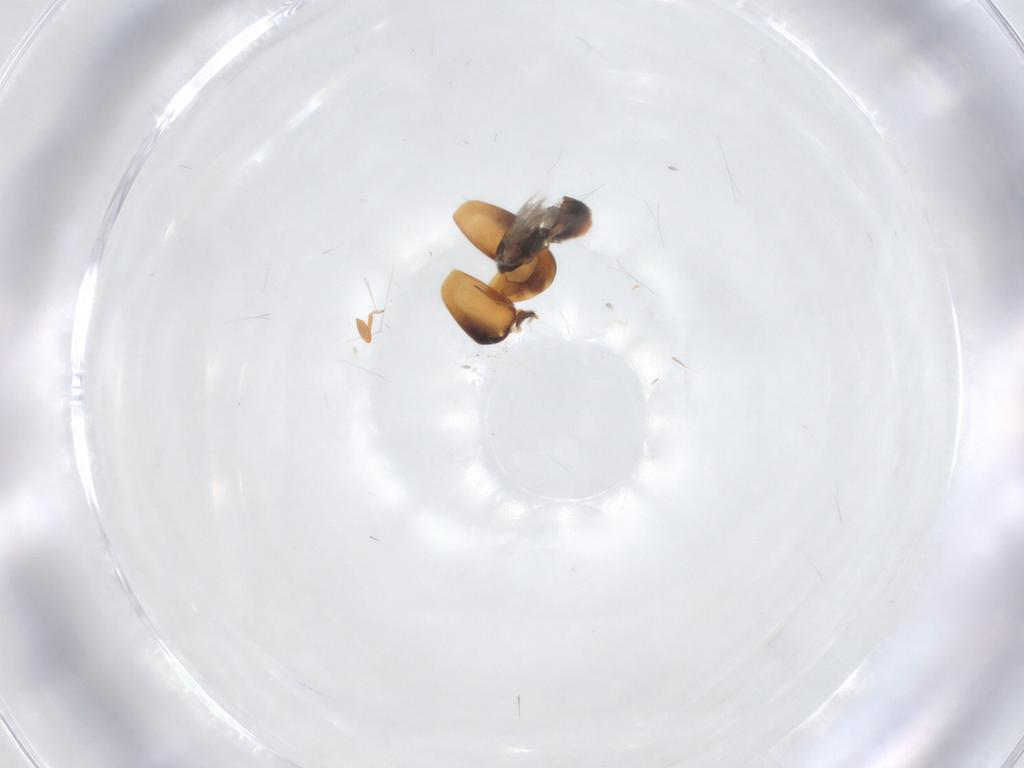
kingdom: Animalia
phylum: Arthropoda
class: Insecta
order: Coleoptera
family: Corylophidae
